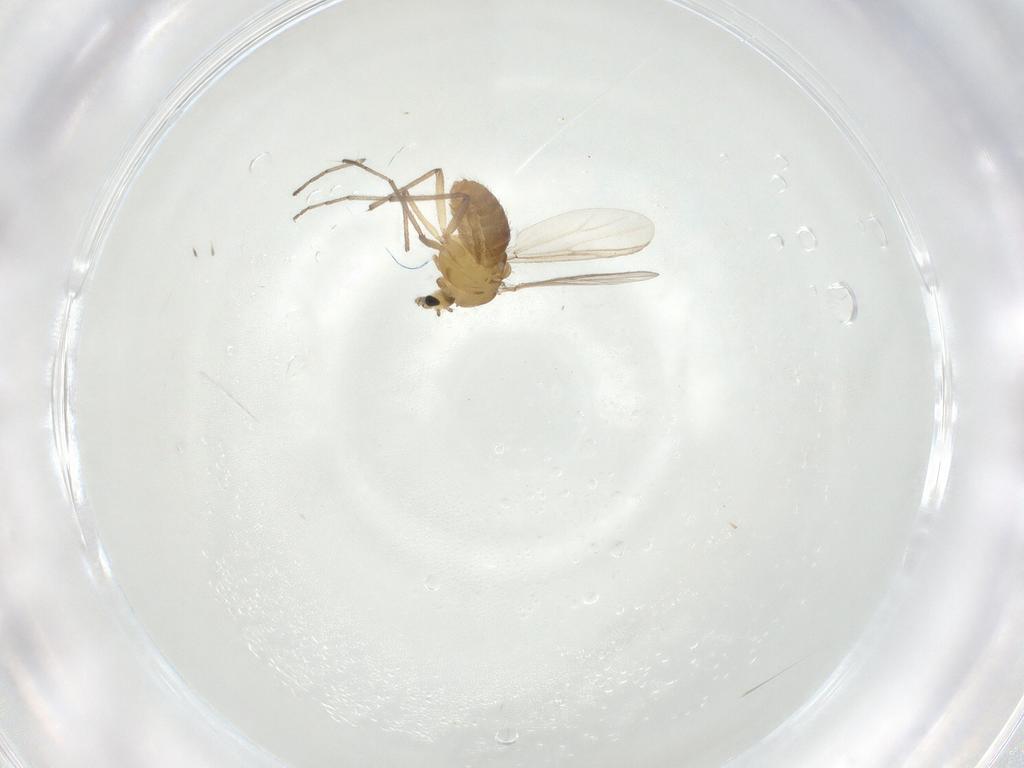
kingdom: Animalia
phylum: Arthropoda
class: Insecta
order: Diptera
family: Chironomidae
